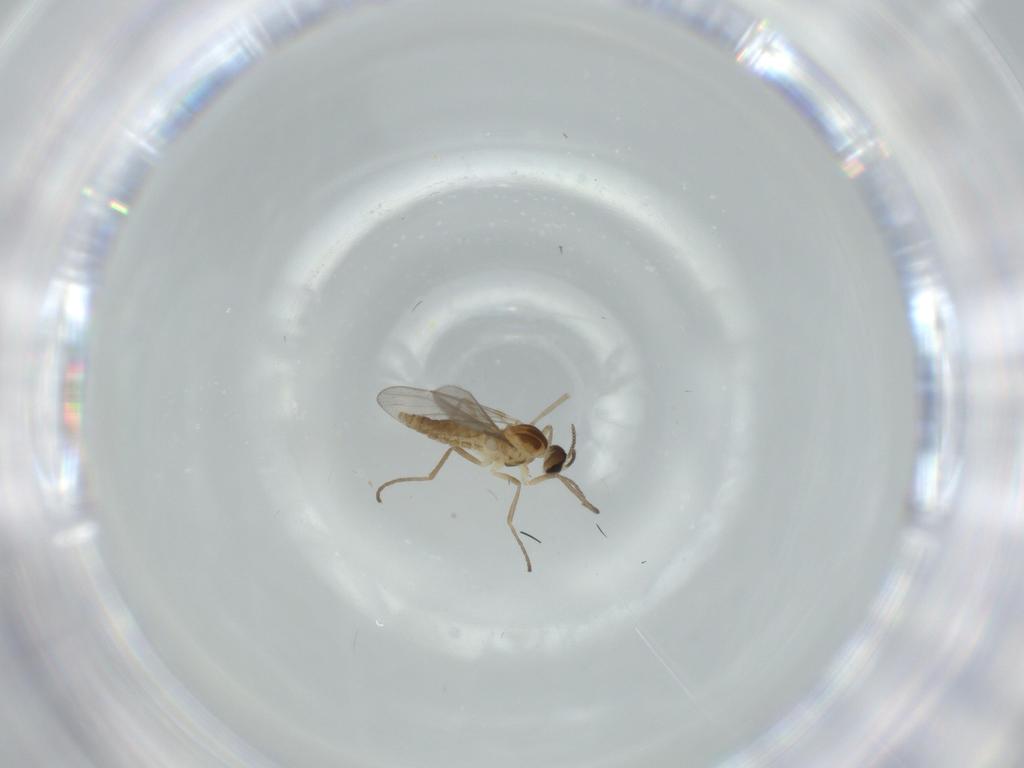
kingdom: Animalia
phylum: Arthropoda
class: Insecta
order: Diptera
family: Cecidomyiidae
